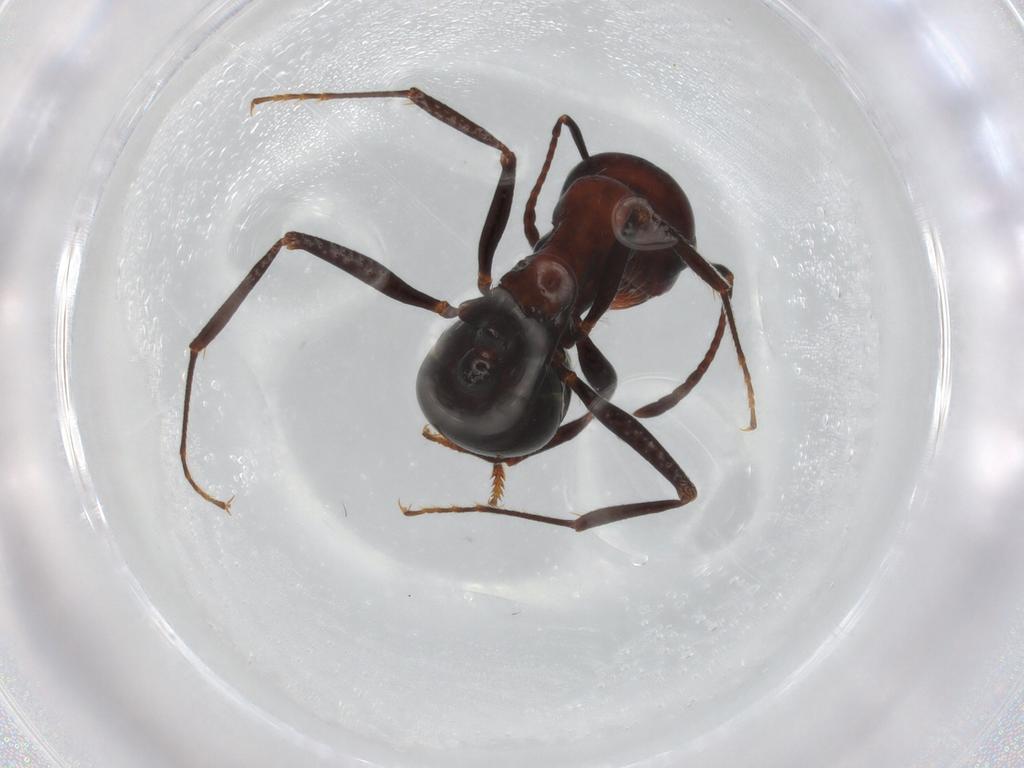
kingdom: Animalia
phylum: Arthropoda
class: Insecta
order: Hymenoptera
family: Formicidae
